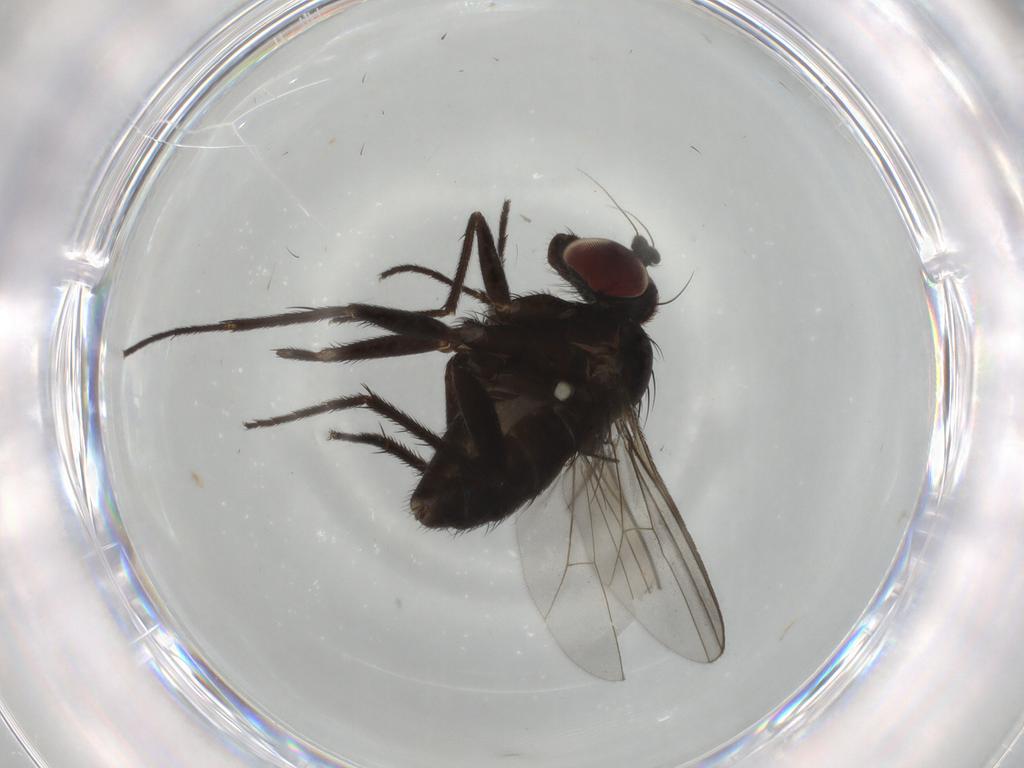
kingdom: Animalia
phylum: Arthropoda
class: Insecta
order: Diptera
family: Dolichopodidae
